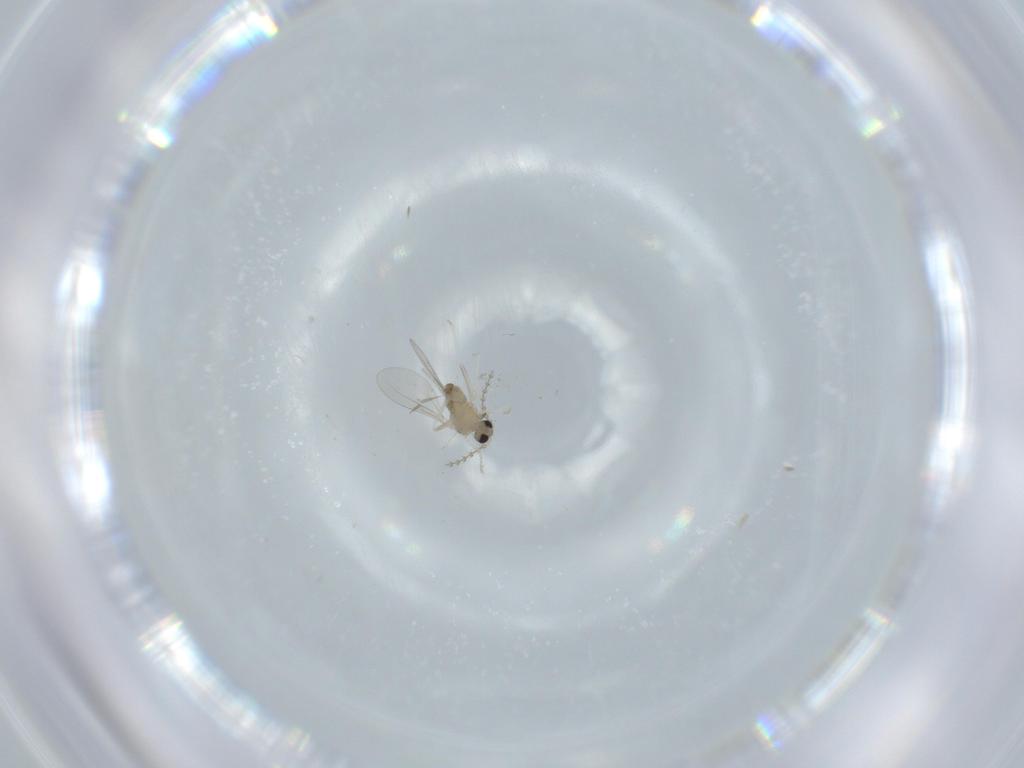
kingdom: Animalia
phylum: Arthropoda
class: Insecta
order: Diptera
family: Cecidomyiidae
